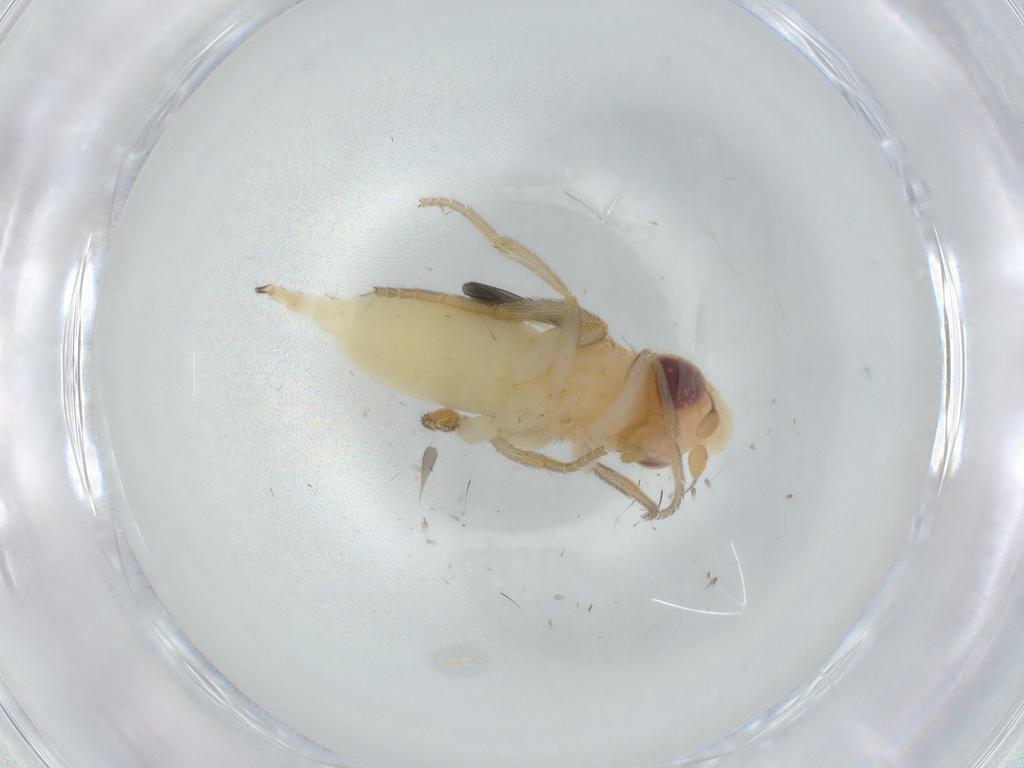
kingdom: Animalia
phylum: Arthropoda
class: Insecta
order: Diptera
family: Chloropidae
